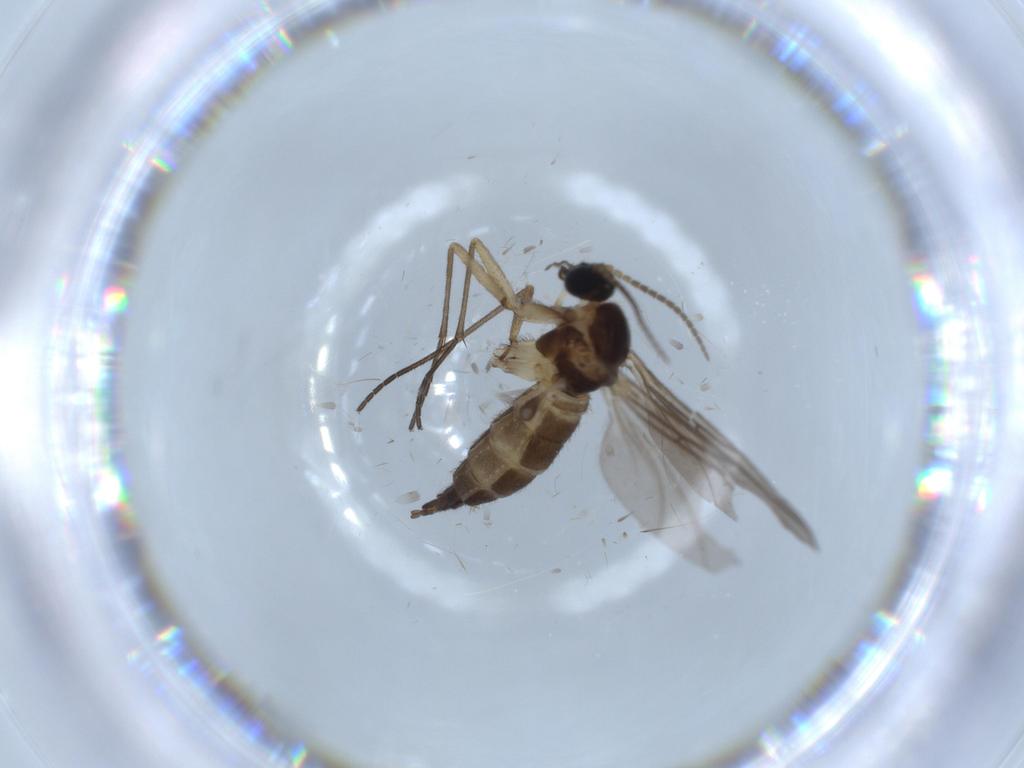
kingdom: Animalia
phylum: Arthropoda
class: Insecta
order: Diptera
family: Sciaridae
